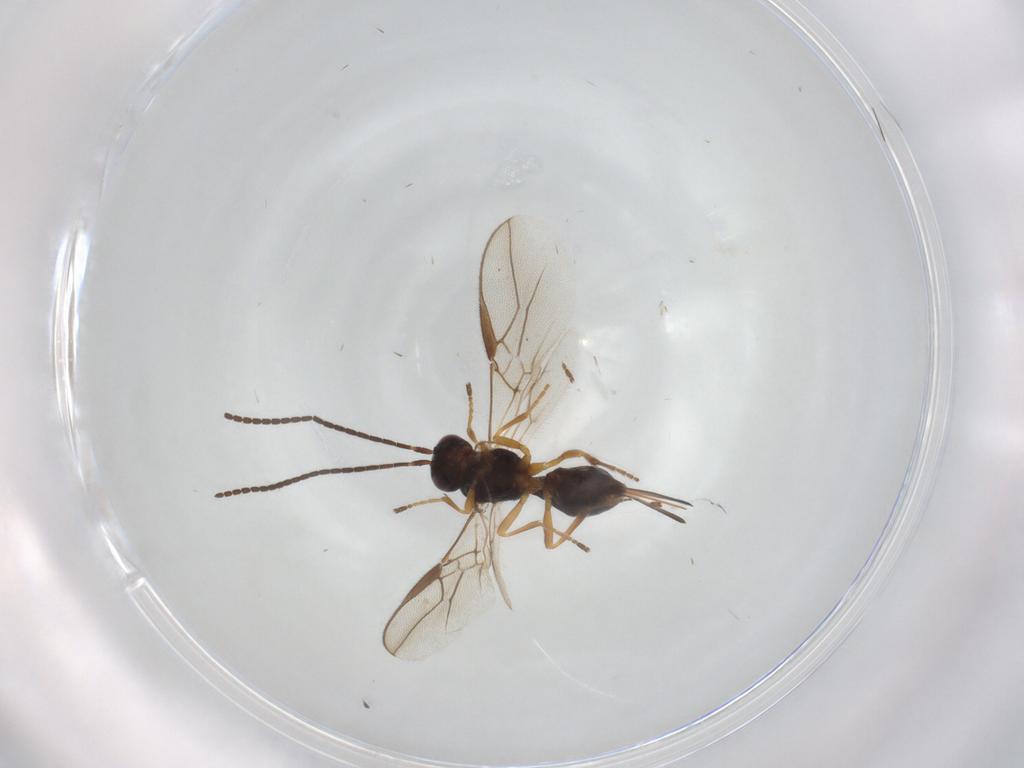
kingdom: Animalia
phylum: Arthropoda
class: Insecta
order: Hymenoptera
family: Braconidae
